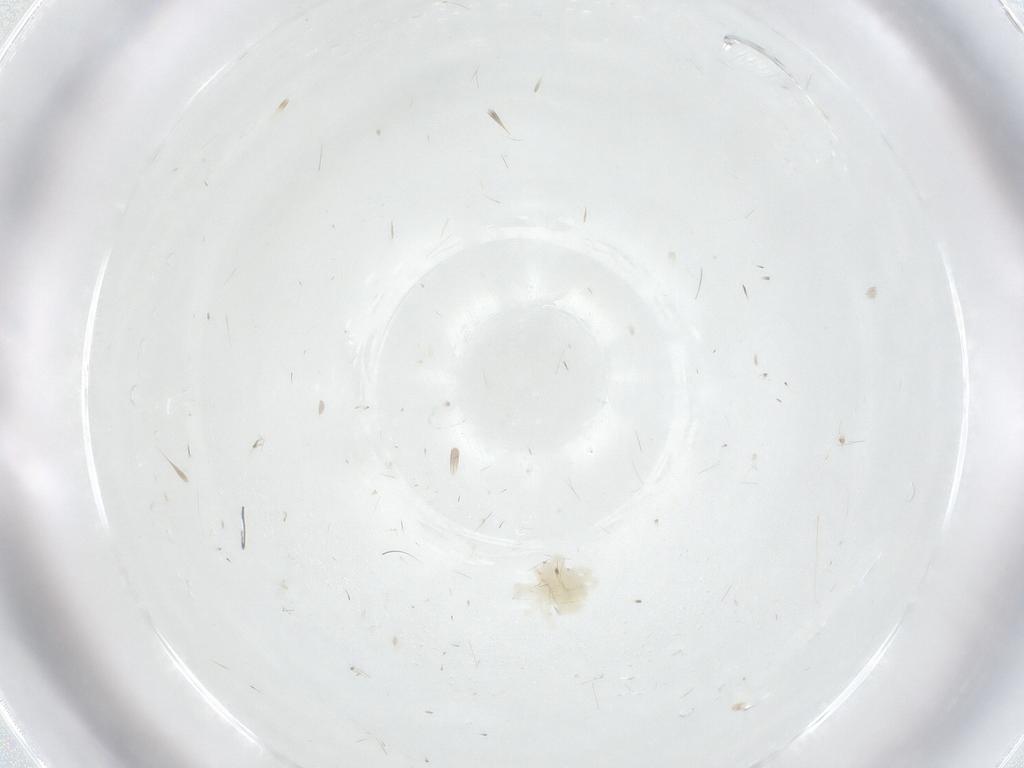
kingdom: Animalia
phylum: Arthropoda
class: Arachnida
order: Trombidiformes
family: Anystidae
